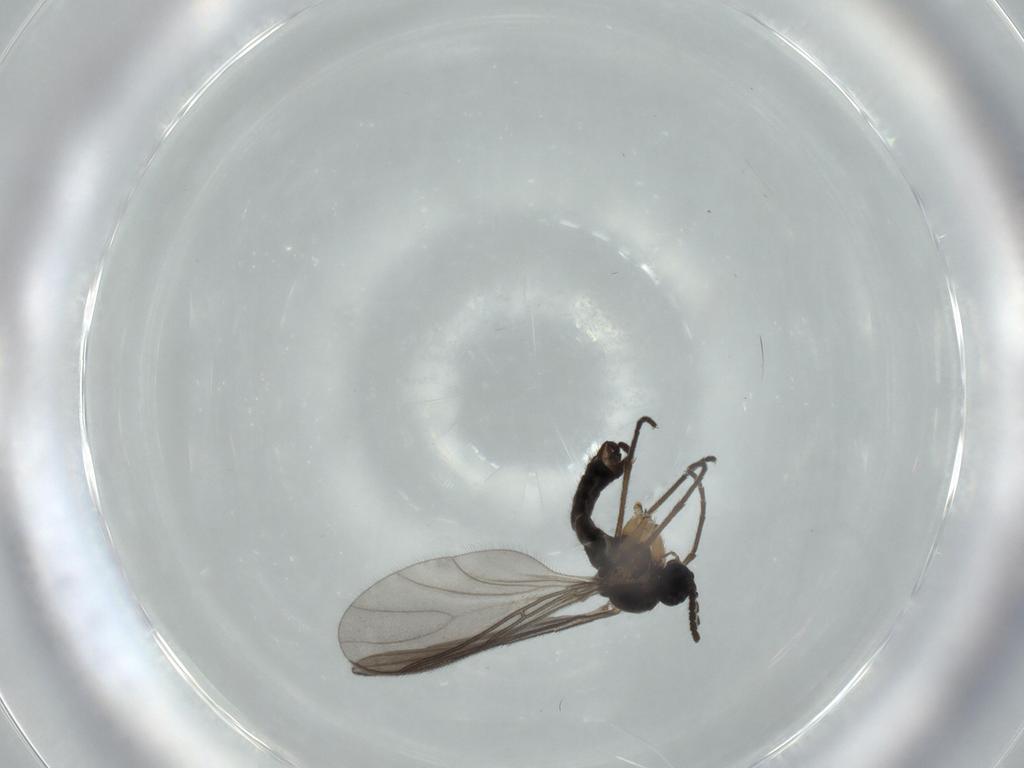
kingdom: Animalia
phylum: Arthropoda
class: Insecta
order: Diptera
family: Sciaridae
